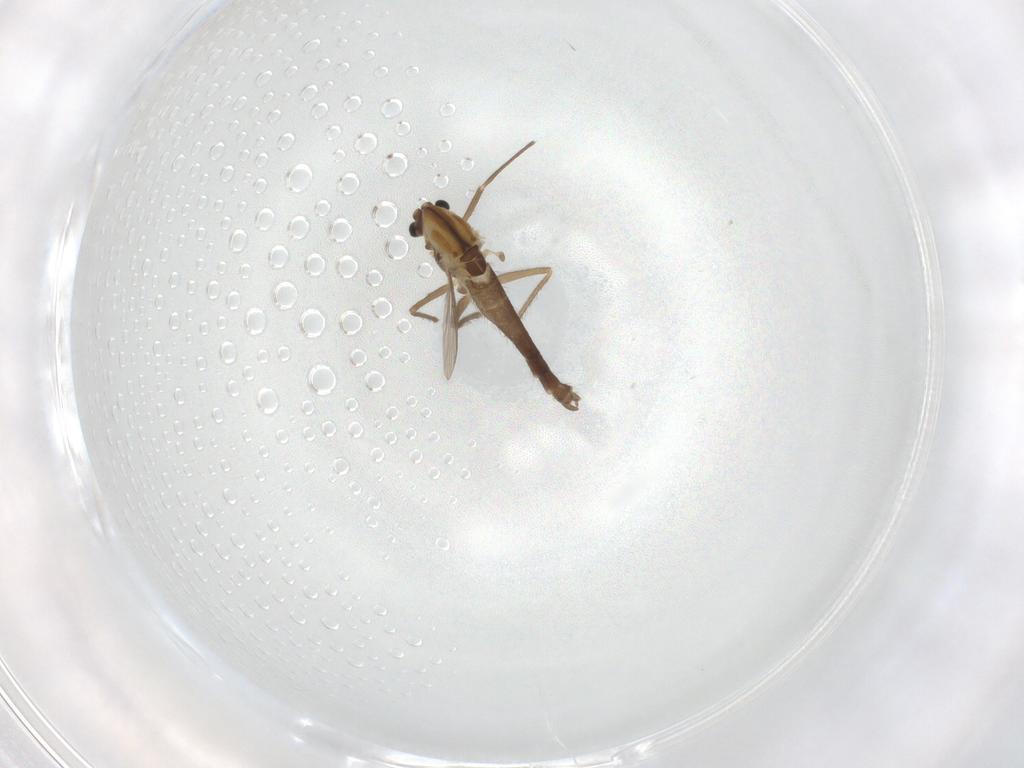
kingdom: Animalia
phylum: Arthropoda
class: Insecta
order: Diptera
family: Chironomidae
